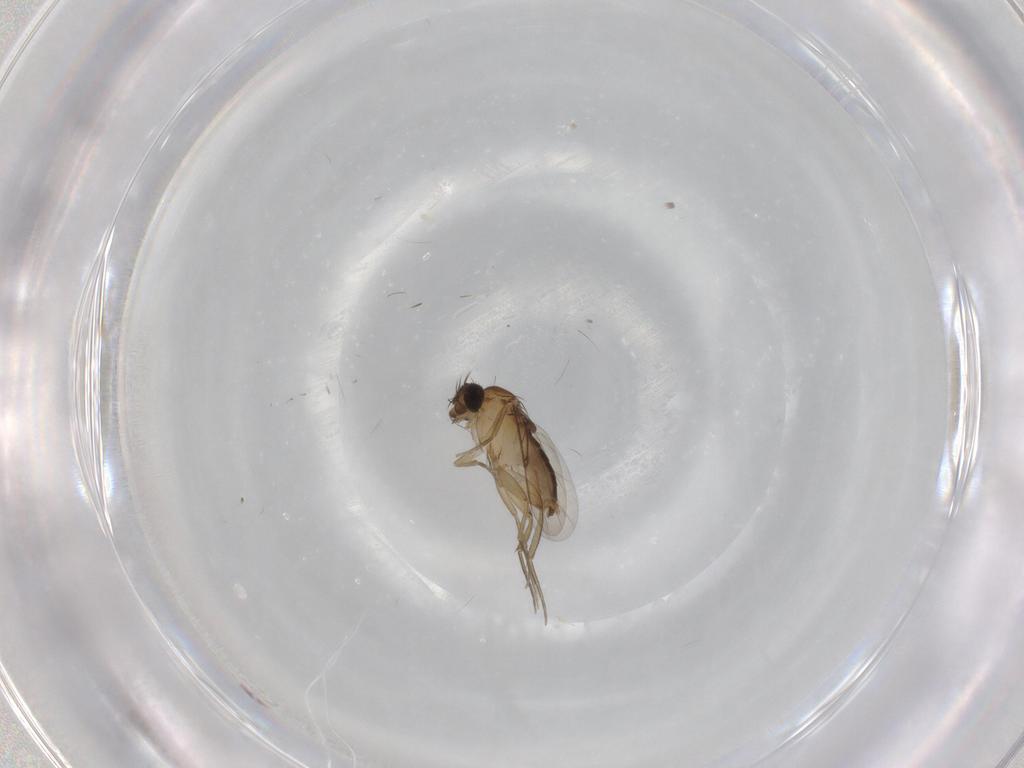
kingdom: Animalia
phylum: Arthropoda
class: Insecta
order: Diptera
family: Phoridae
